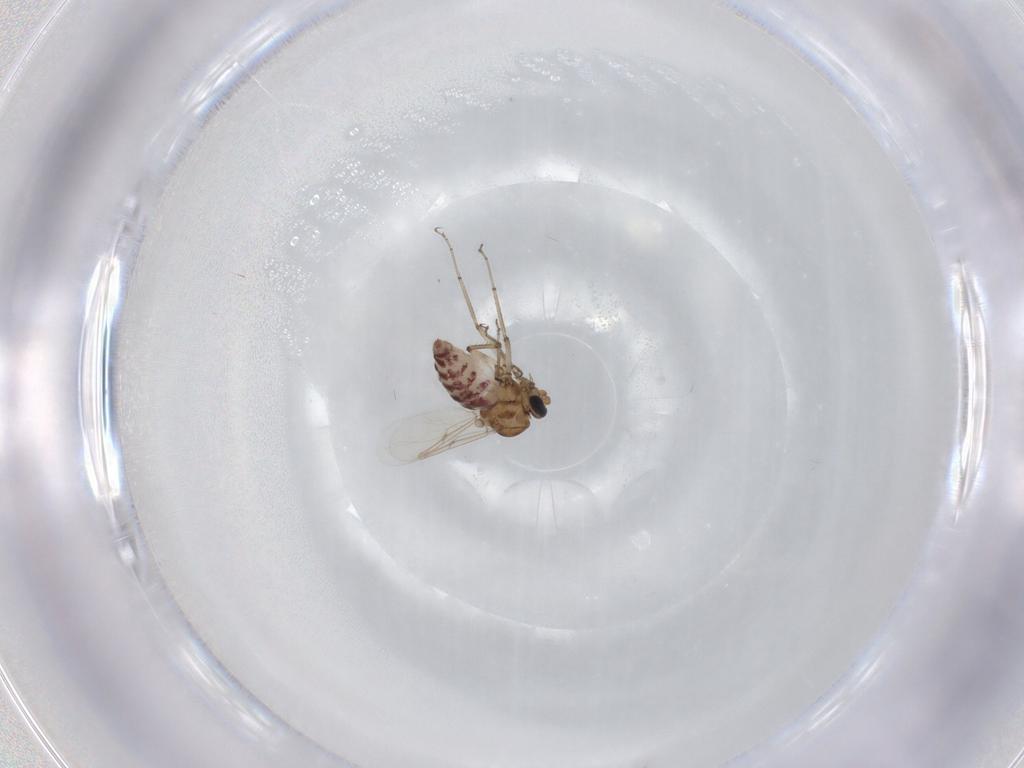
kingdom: Animalia
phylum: Arthropoda
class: Insecta
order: Diptera
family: Ceratopogonidae
